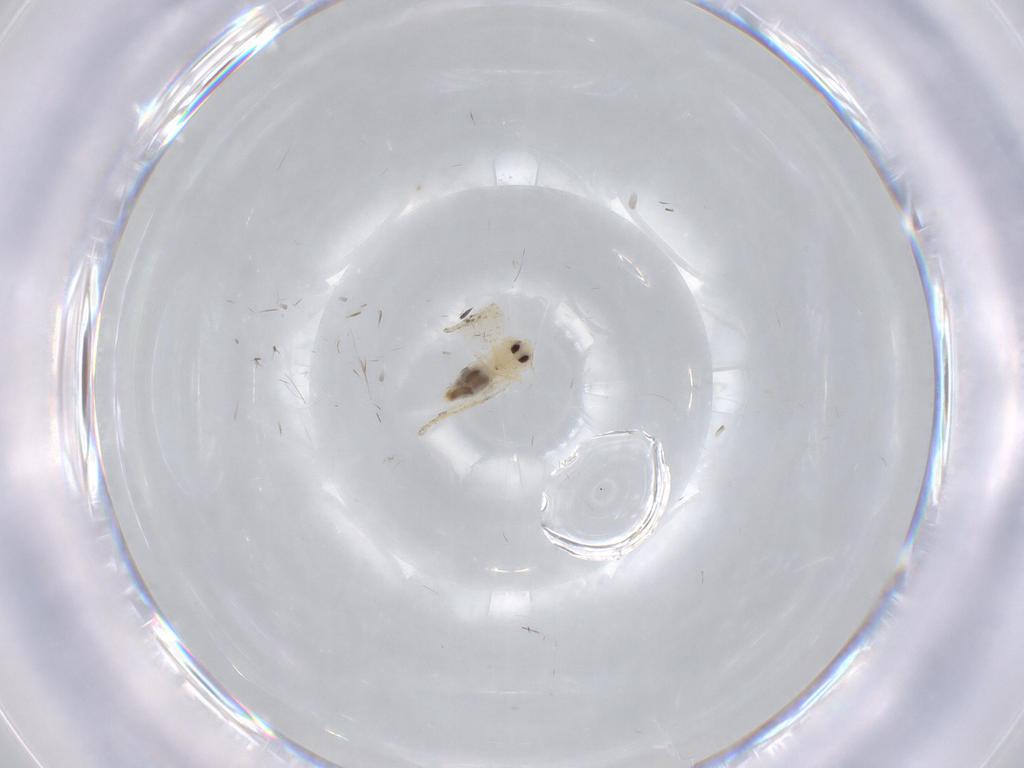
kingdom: Animalia
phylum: Arthropoda
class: Insecta
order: Hemiptera
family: Aleyrodidae
